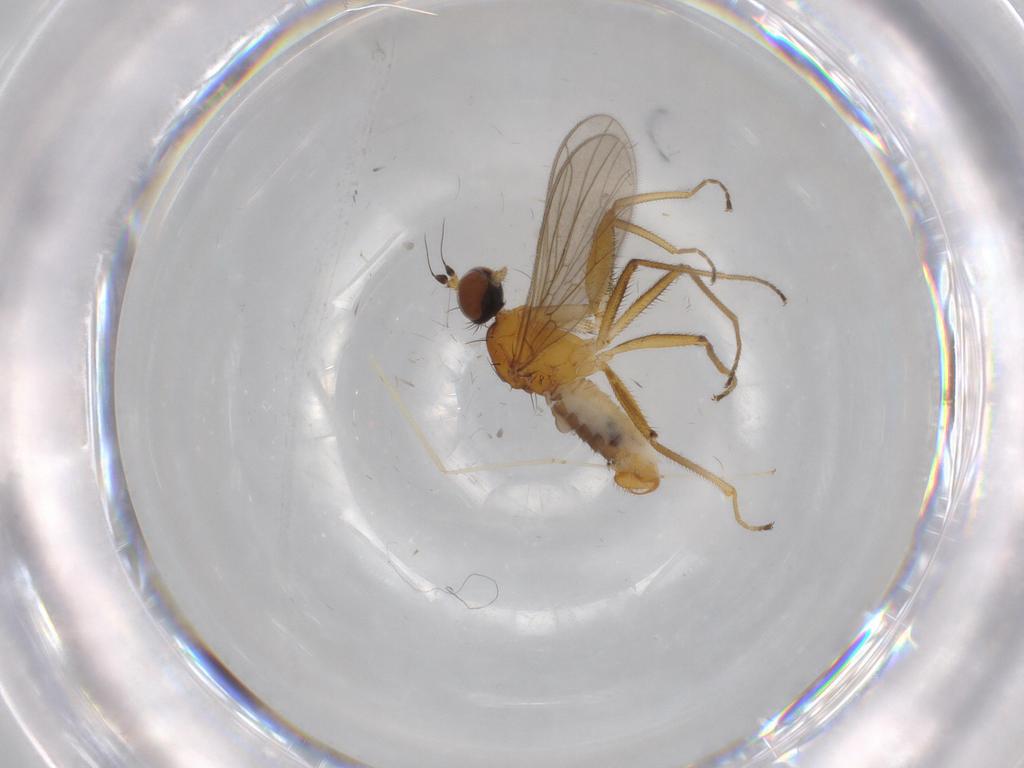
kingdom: Animalia
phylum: Arthropoda
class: Insecta
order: Diptera
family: Empididae
